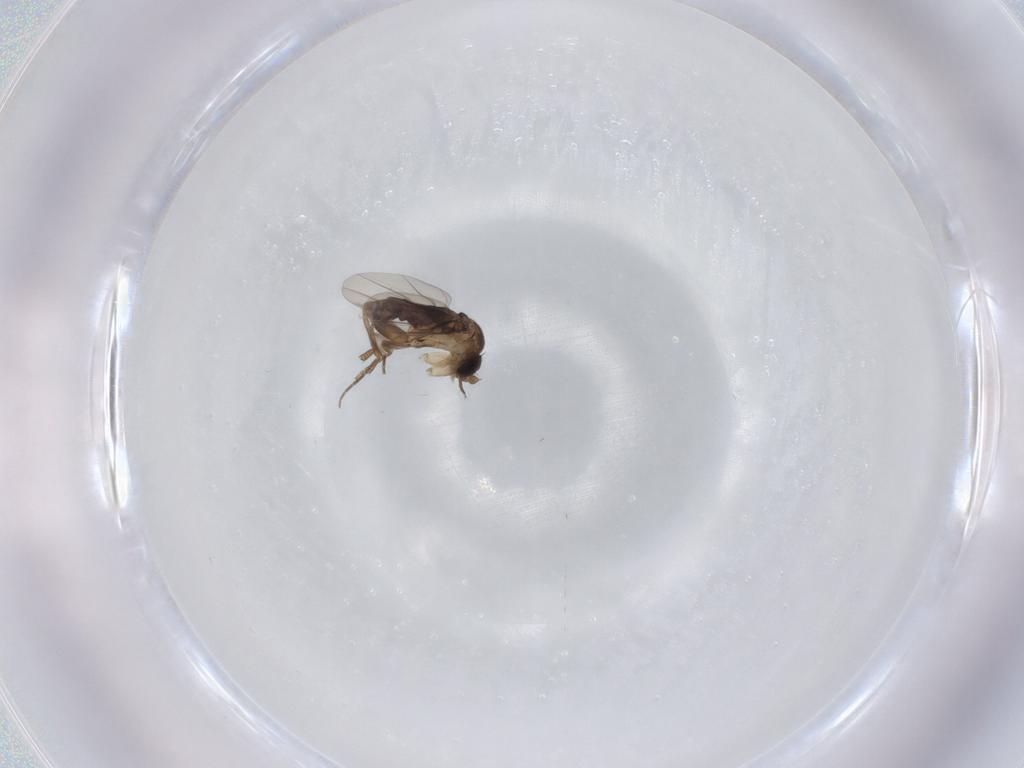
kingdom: Animalia
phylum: Arthropoda
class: Insecta
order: Diptera
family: Phoridae
